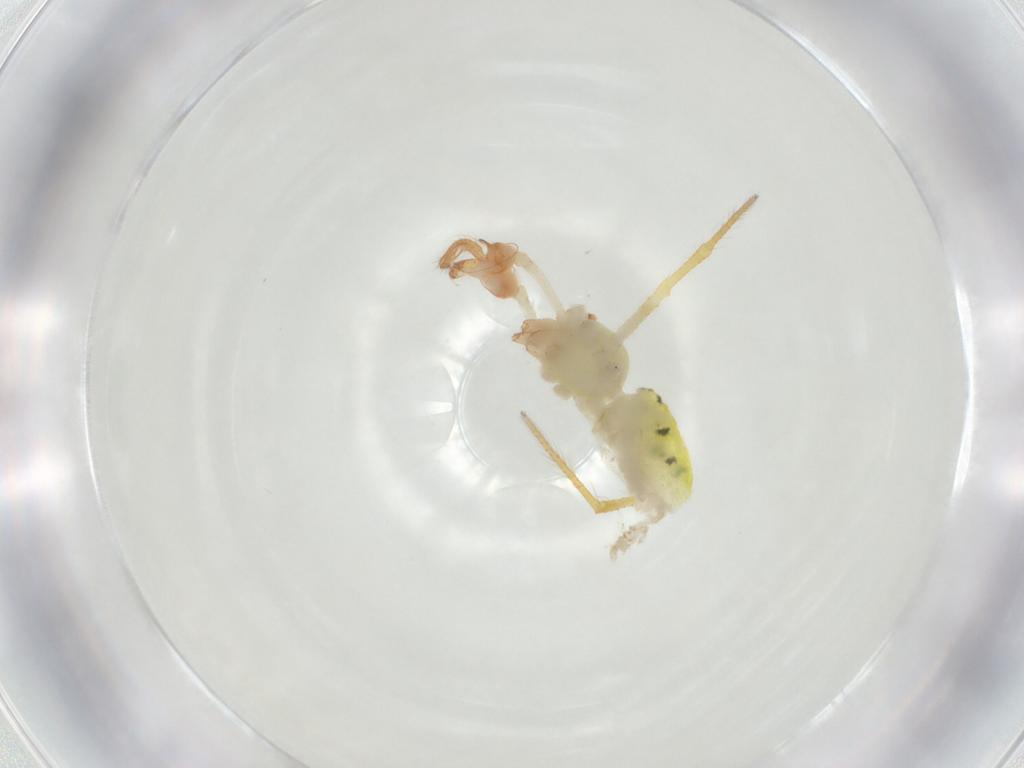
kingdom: Animalia
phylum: Arthropoda
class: Arachnida
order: Araneae
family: Theridiidae
